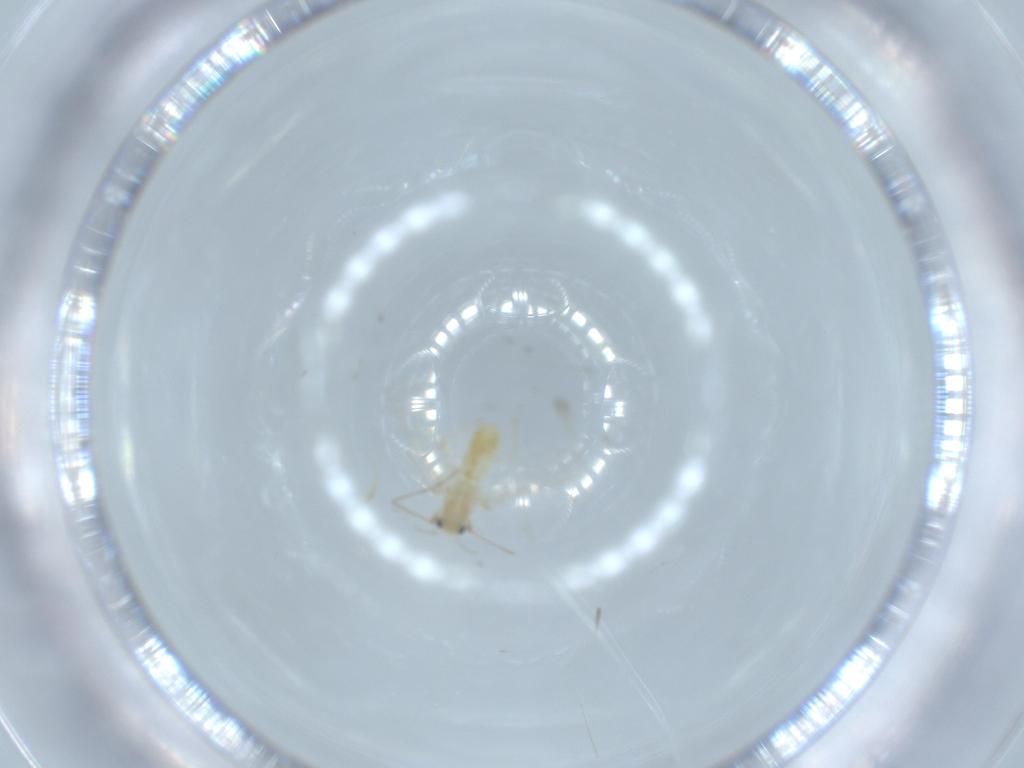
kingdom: Animalia
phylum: Arthropoda
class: Insecta
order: Diptera
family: Chironomidae
